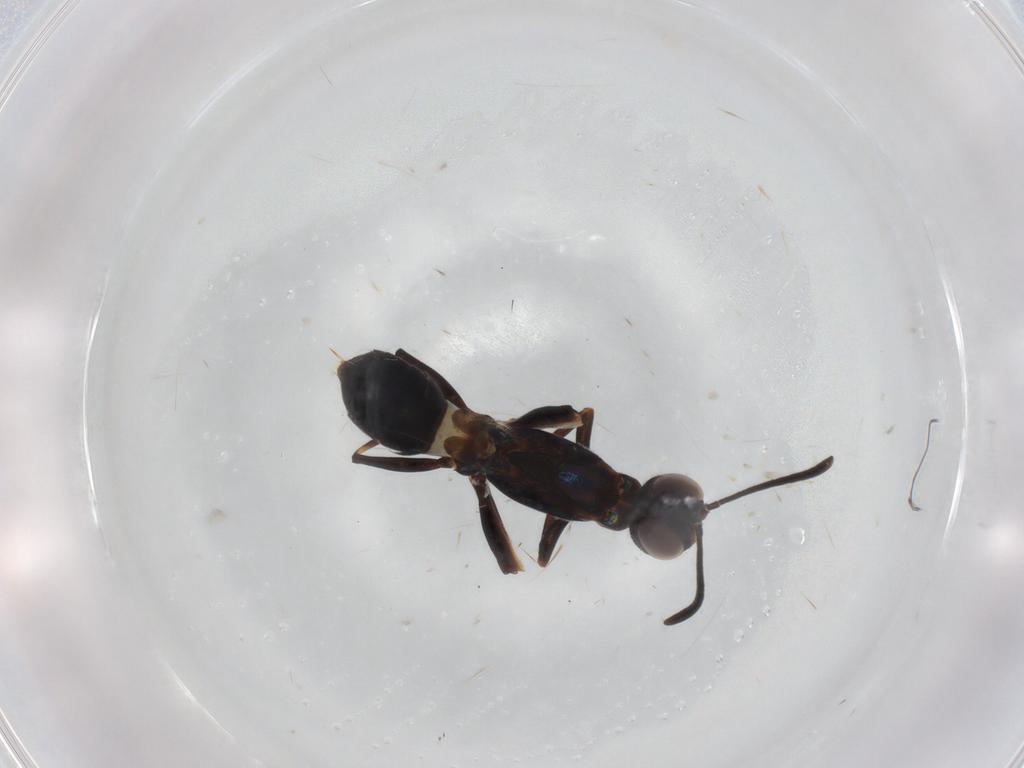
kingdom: Animalia
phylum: Arthropoda
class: Insecta
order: Hymenoptera
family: Eupelmidae
